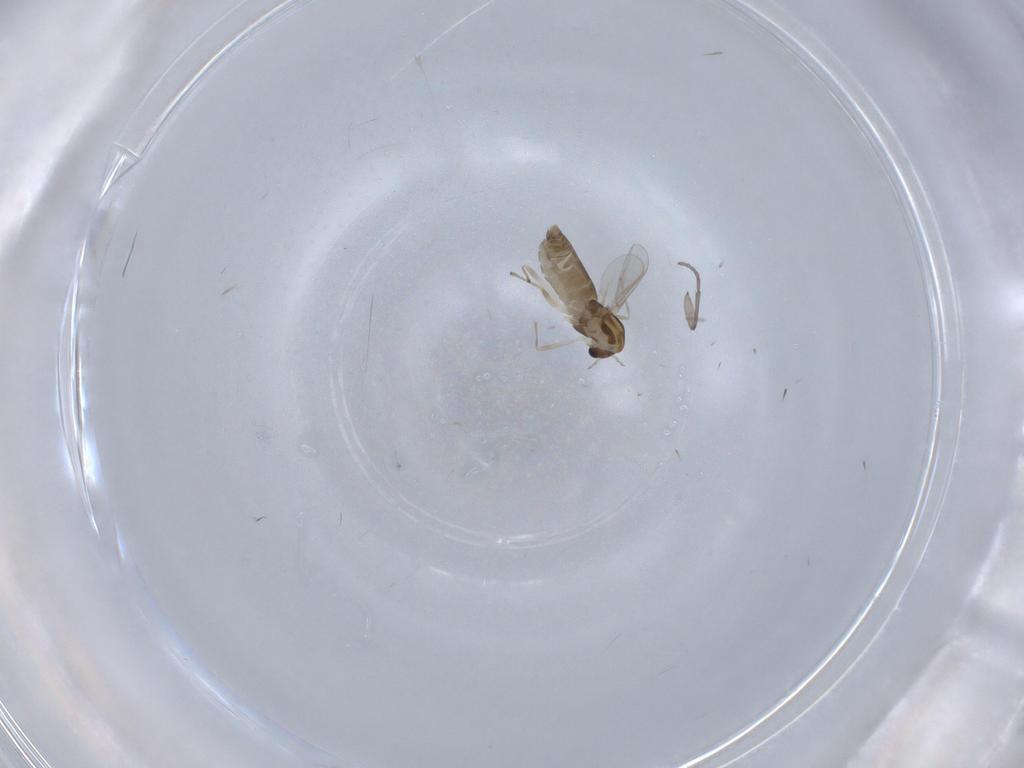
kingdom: Animalia
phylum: Arthropoda
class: Insecta
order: Diptera
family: Chironomidae
